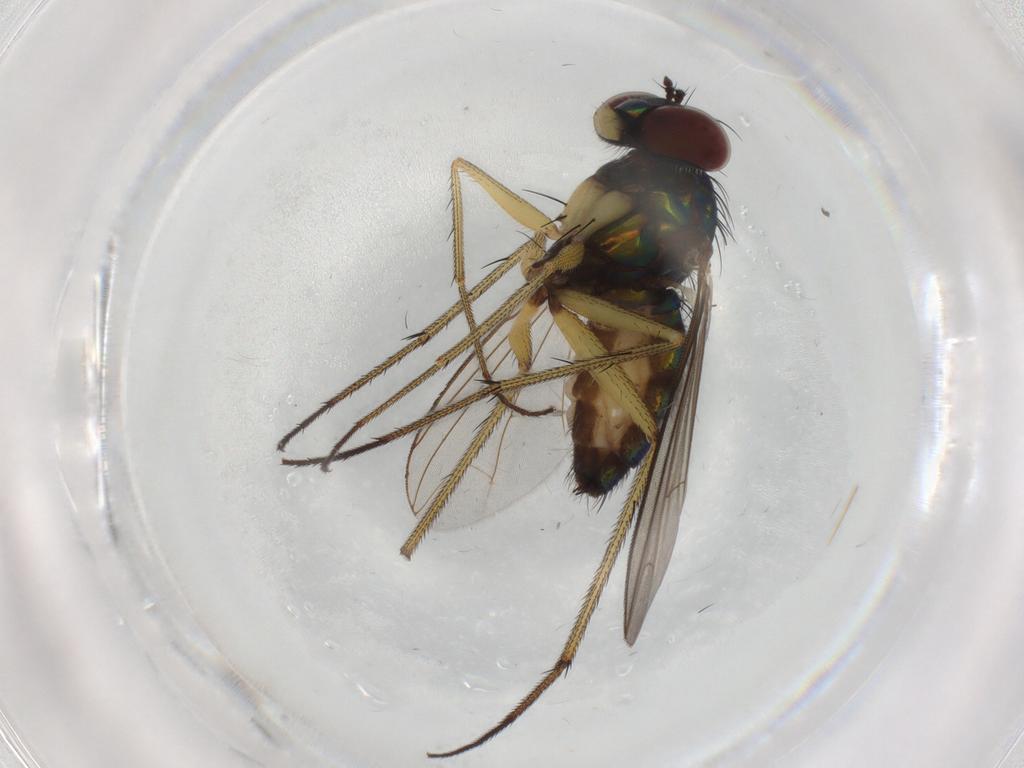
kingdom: Animalia
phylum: Arthropoda
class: Insecta
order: Diptera
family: Dolichopodidae
